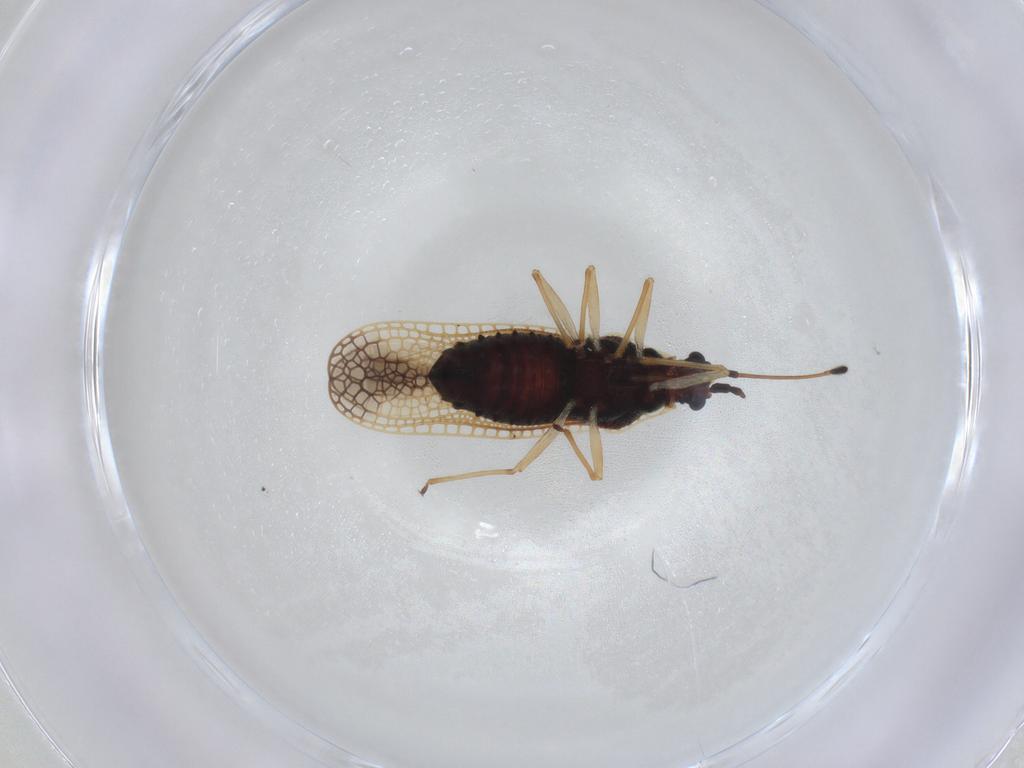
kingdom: Animalia
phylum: Arthropoda
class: Insecta
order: Hemiptera
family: Tingidae
